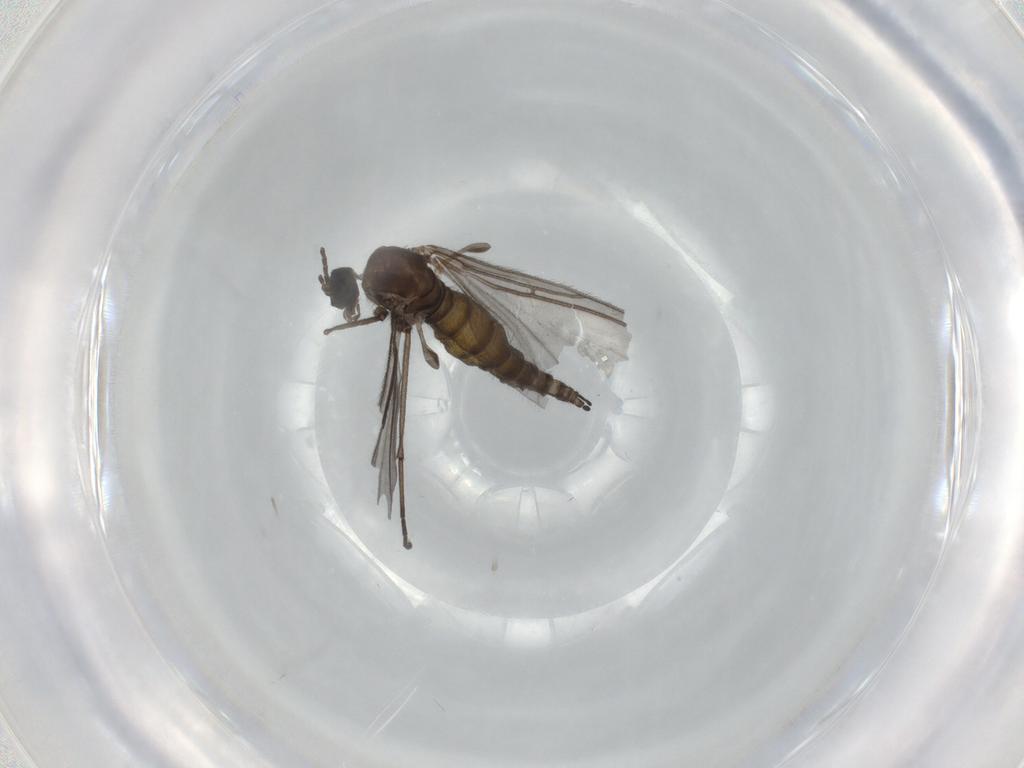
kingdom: Animalia
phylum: Arthropoda
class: Insecta
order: Diptera
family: Sciaridae
